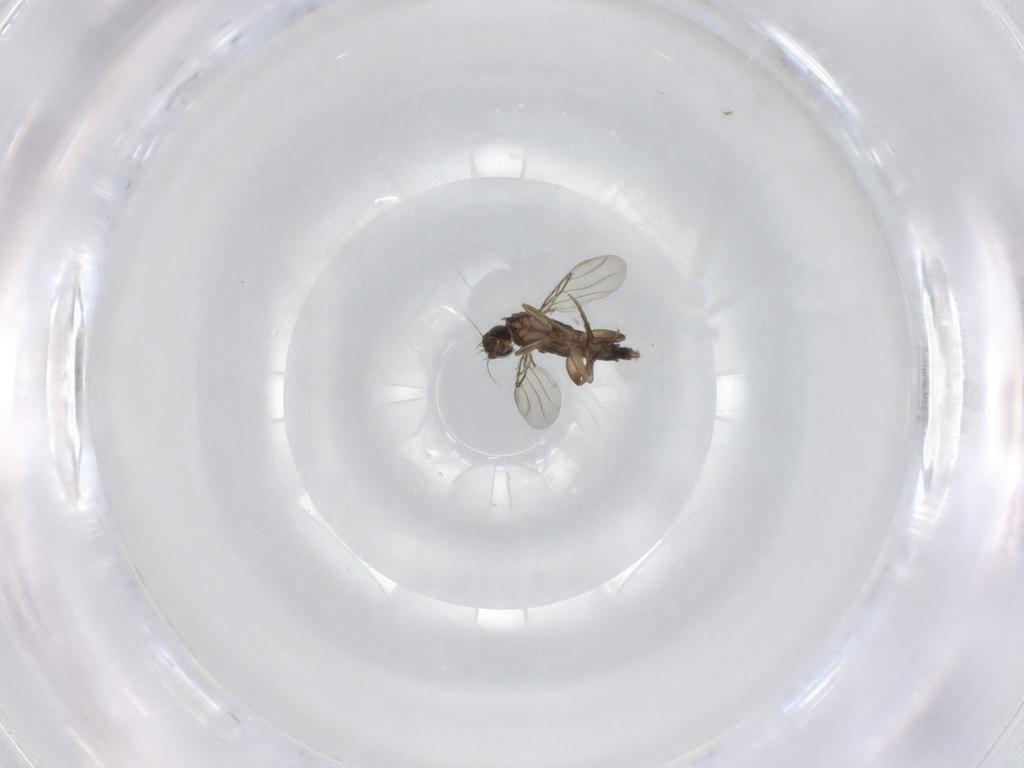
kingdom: Animalia
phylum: Arthropoda
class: Insecta
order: Diptera
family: Phoridae
